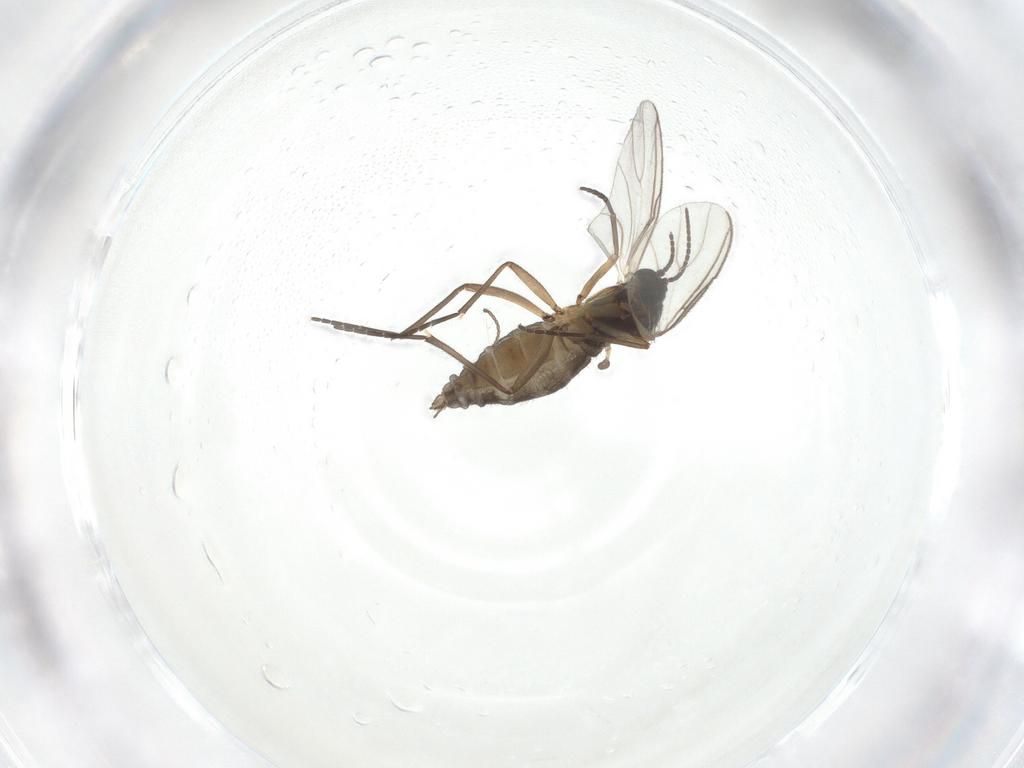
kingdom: Animalia
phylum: Arthropoda
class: Insecta
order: Diptera
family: Sciaridae
